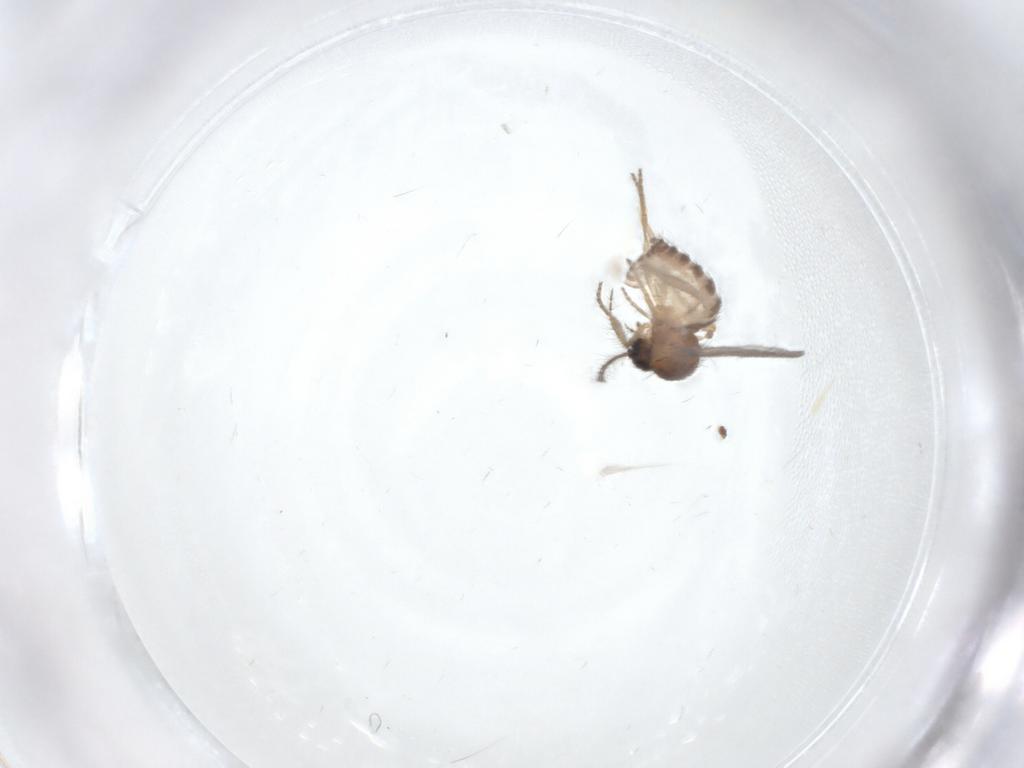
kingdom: Animalia
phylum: Arthropoda
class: Insecta
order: Diptera
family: Ceratopogonidae
